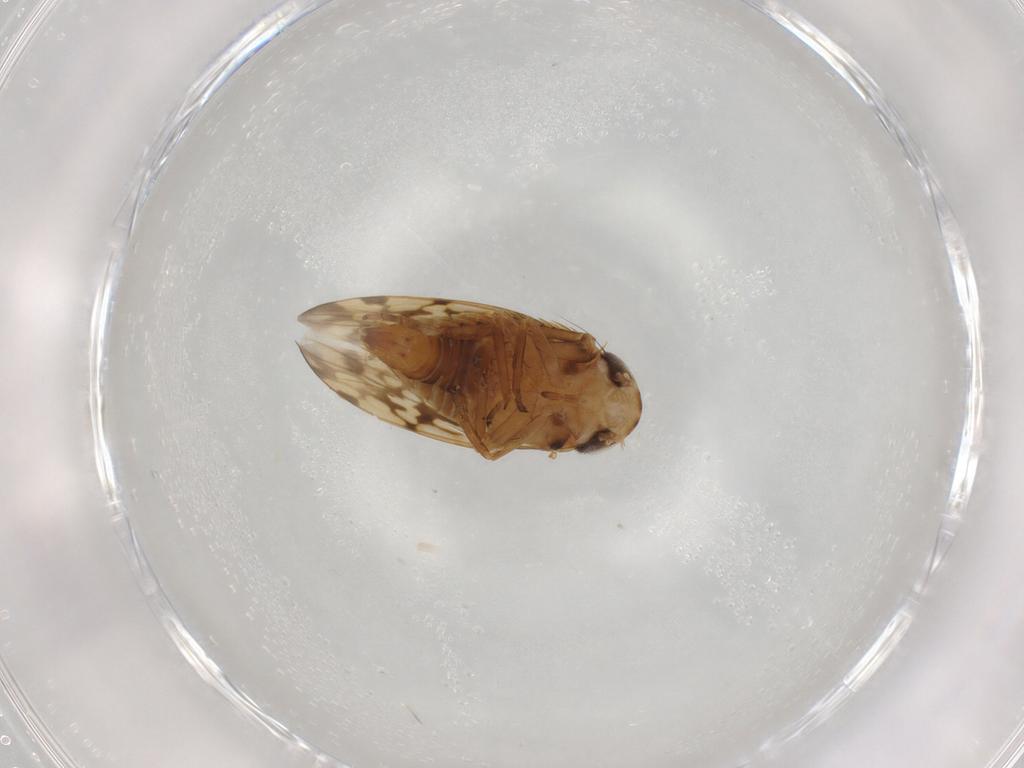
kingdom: Animalia
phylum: Arthropoda
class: Insecta
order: Hemiptera
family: Cicadellidae
